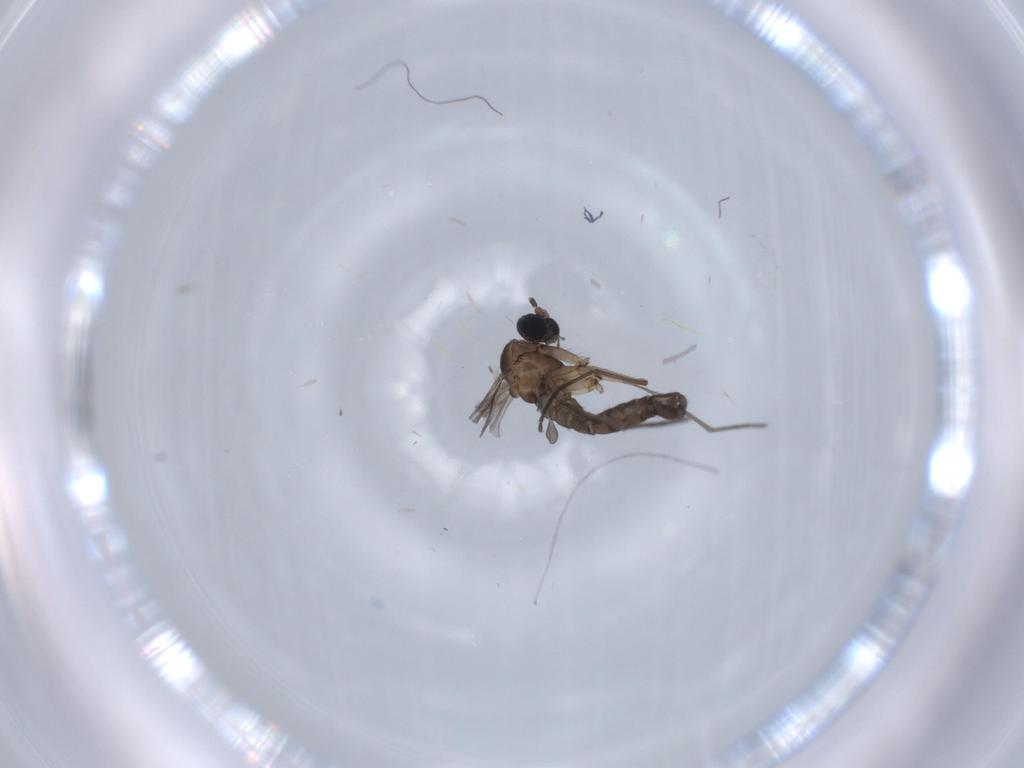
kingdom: Animalia
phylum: Arthropoda
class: Insecta
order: Diptera
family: Sciaridae
